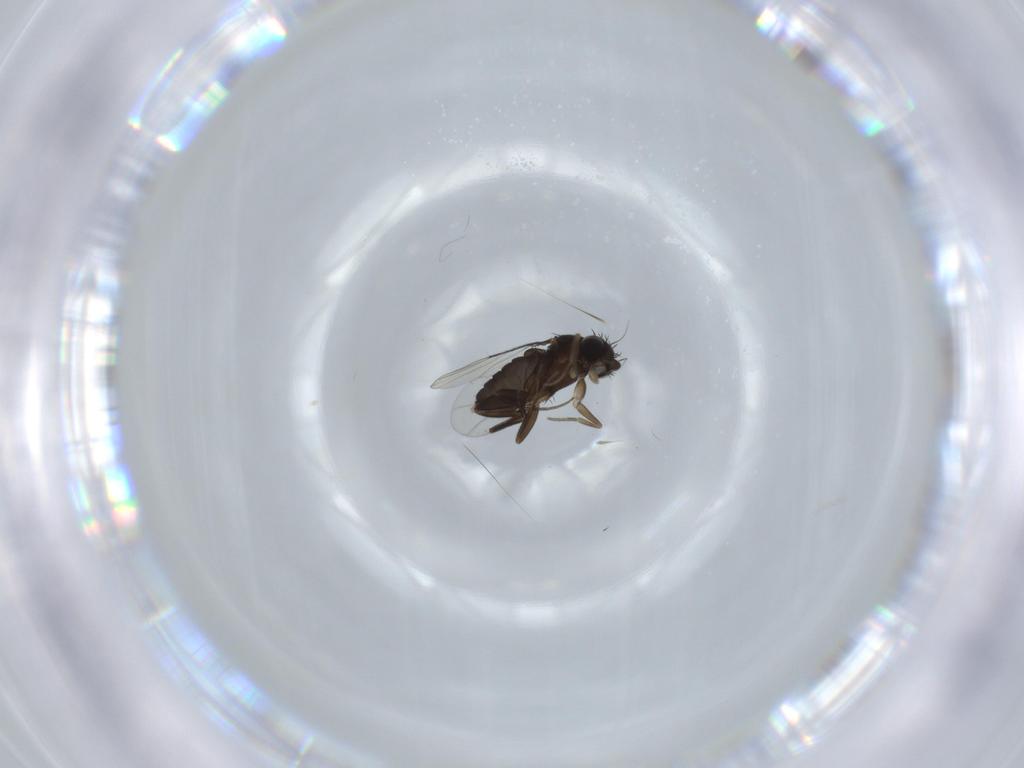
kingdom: Animalia
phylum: Arthropoda
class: Insecta
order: Diptera
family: Phoridae
